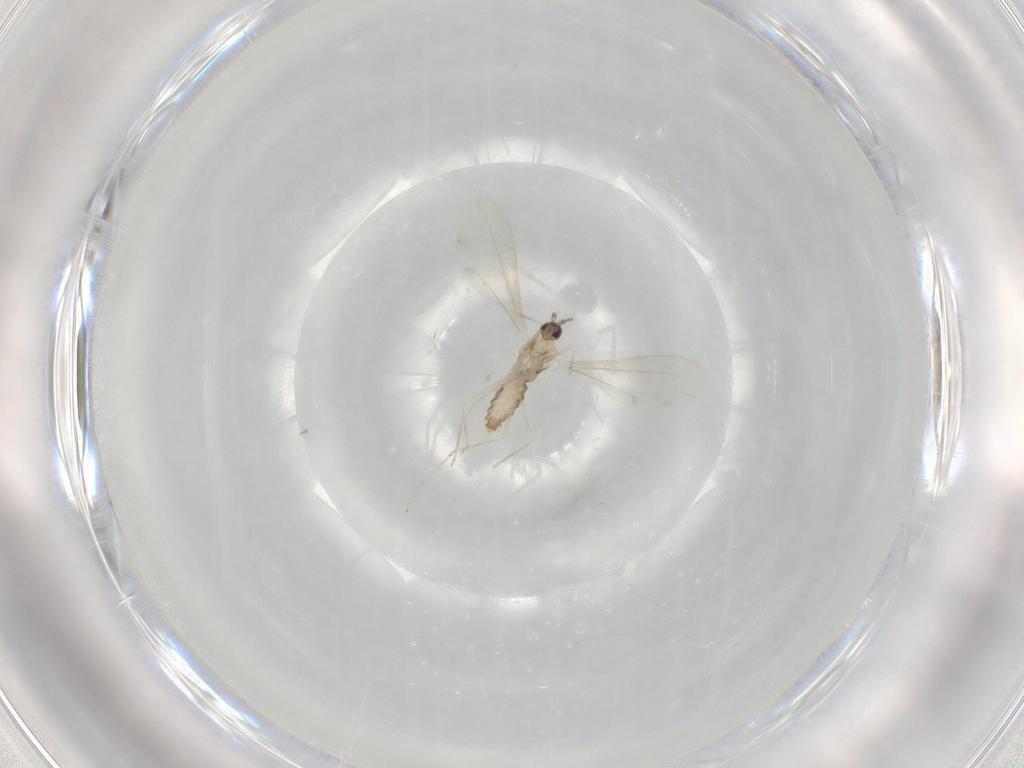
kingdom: Animalia
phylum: Arthropoda
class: Insecta
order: Diptera
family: Cecidomyiidae
